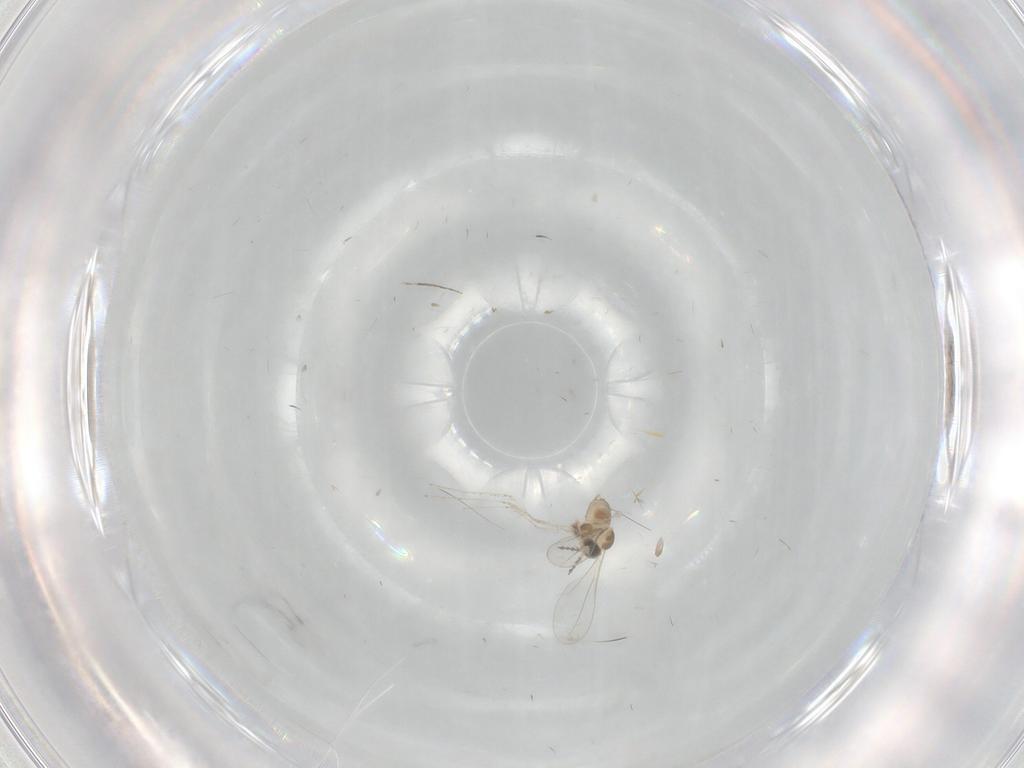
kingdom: Animalia
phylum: Arthropoda
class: Insecta
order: Diptera
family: Cecidomyiidae
